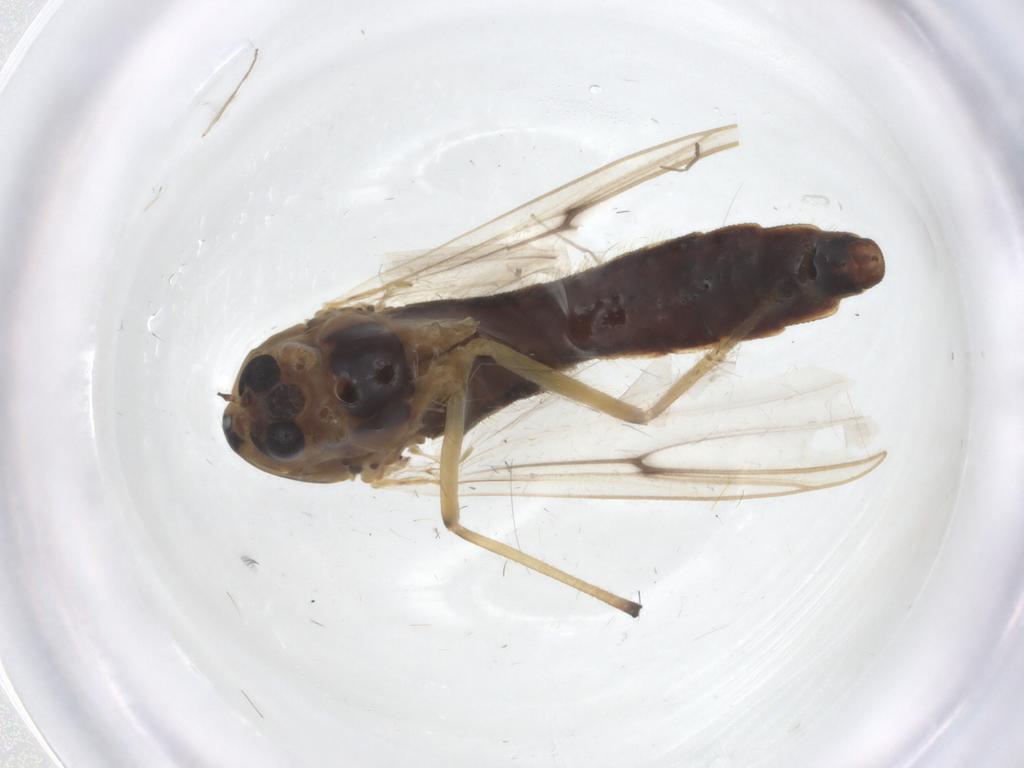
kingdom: Animalia
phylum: Arthropoda
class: Insecta
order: Diptera
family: Chironomidae
